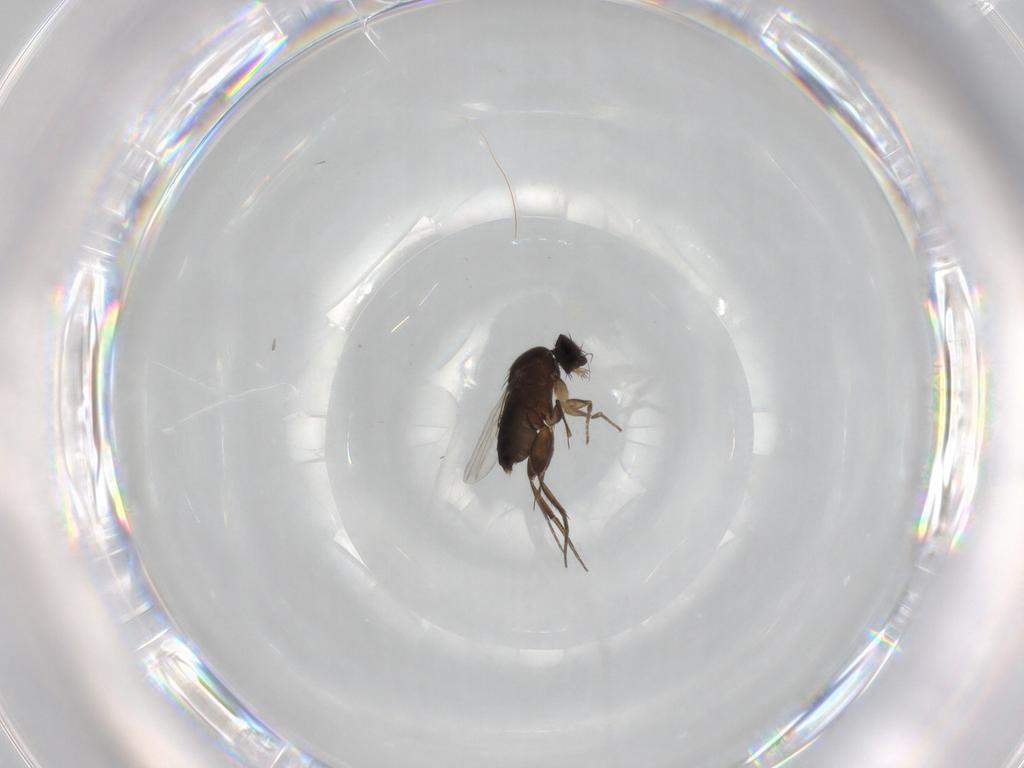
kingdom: Animalia
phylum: Arthropoda
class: Insecta
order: Diptera
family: Phoridae
